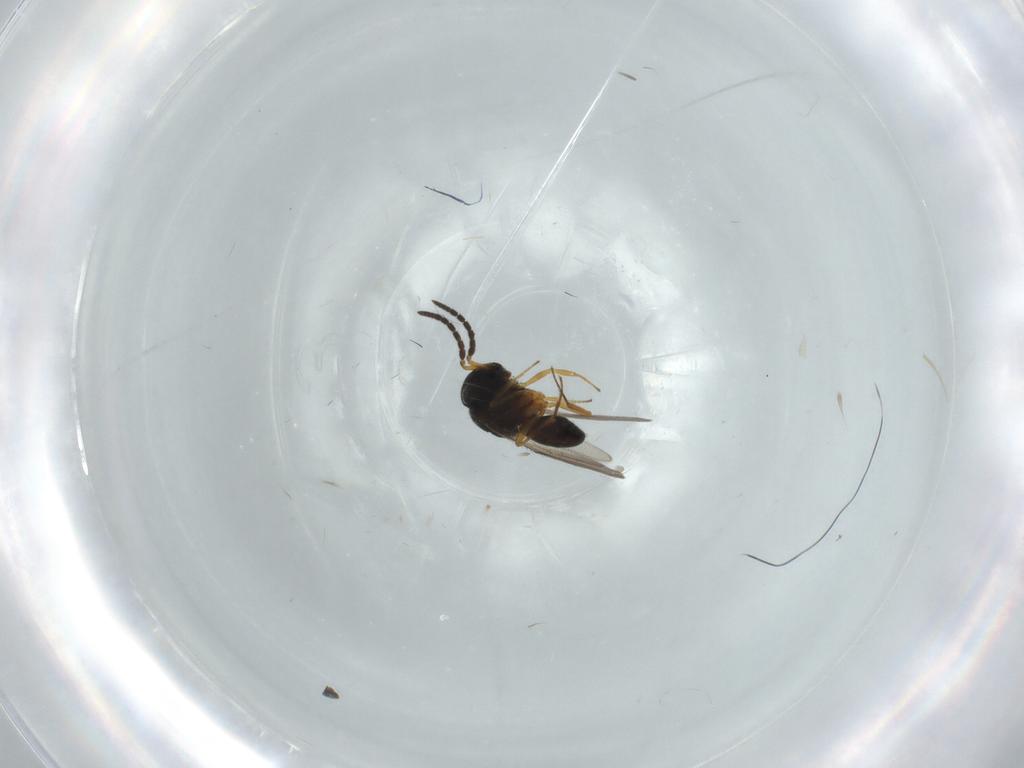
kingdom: Animalia
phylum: Arthropoda
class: Insecta
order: Coleoptera
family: Curculionidae
